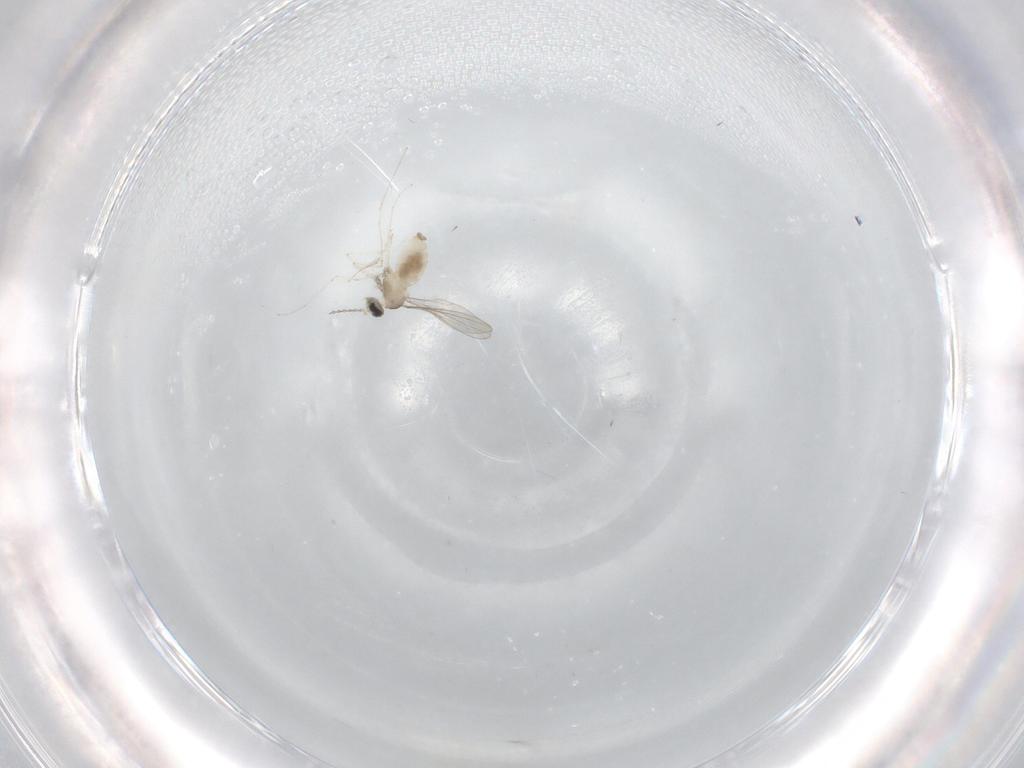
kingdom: Animalia
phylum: Arthropoda
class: Insecta
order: Diptera
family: Cecidomyiidae
